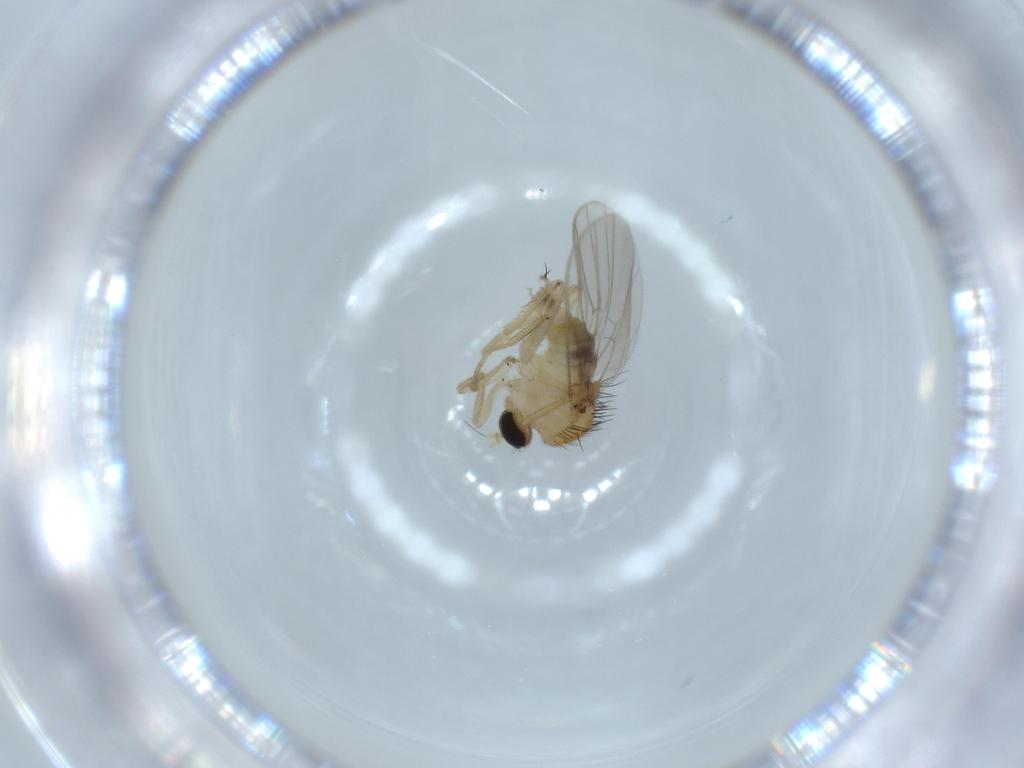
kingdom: Animalia
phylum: Arthropoda
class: Insecta
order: Diptera
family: Hybotidae
